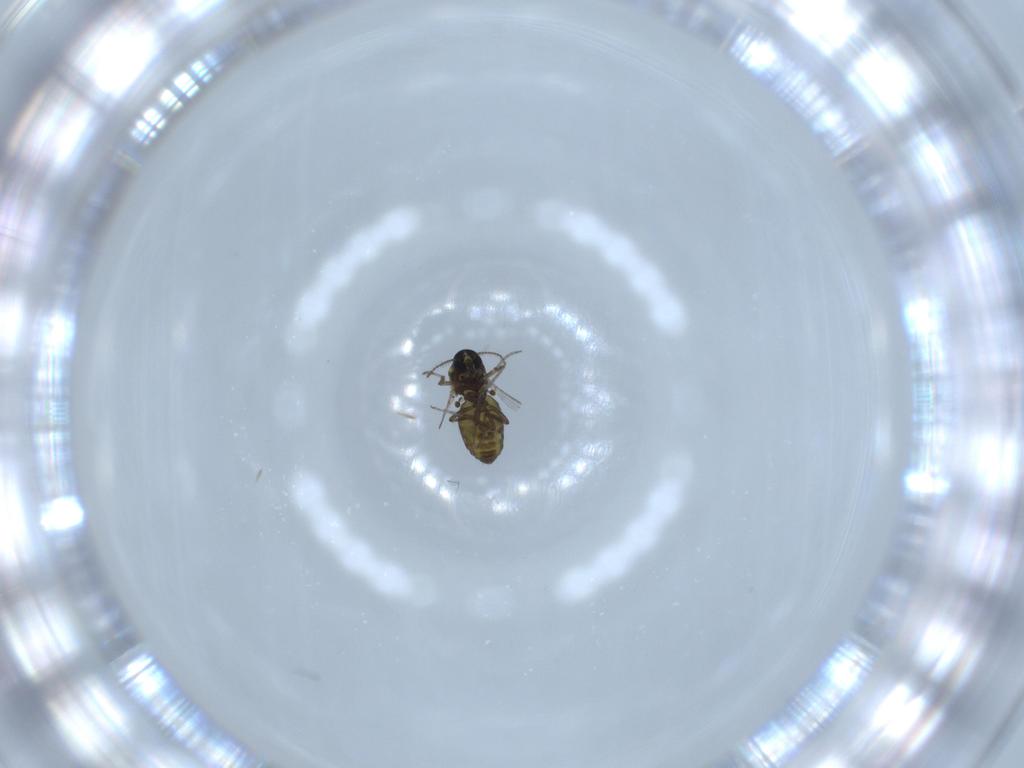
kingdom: Animalia
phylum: Arthropoda
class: Insecta
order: Diptera
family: Ceratopogonidae
